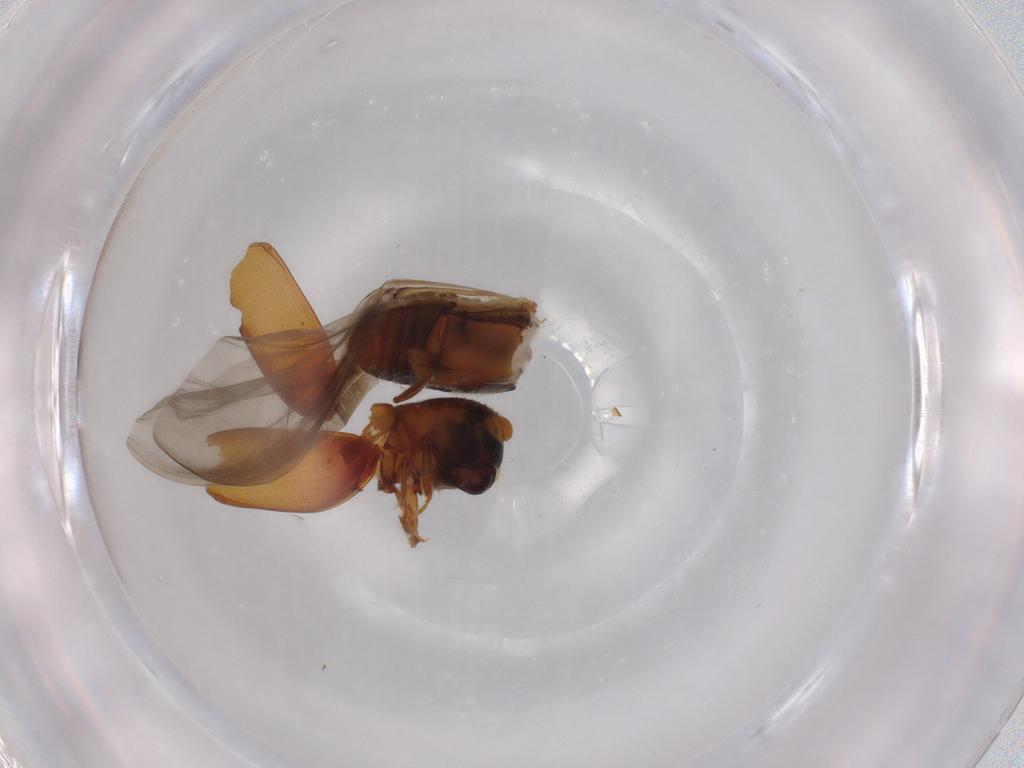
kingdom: Animalia
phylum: Arthropoda
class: Insecta
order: Coleoptera
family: Curculionidae
